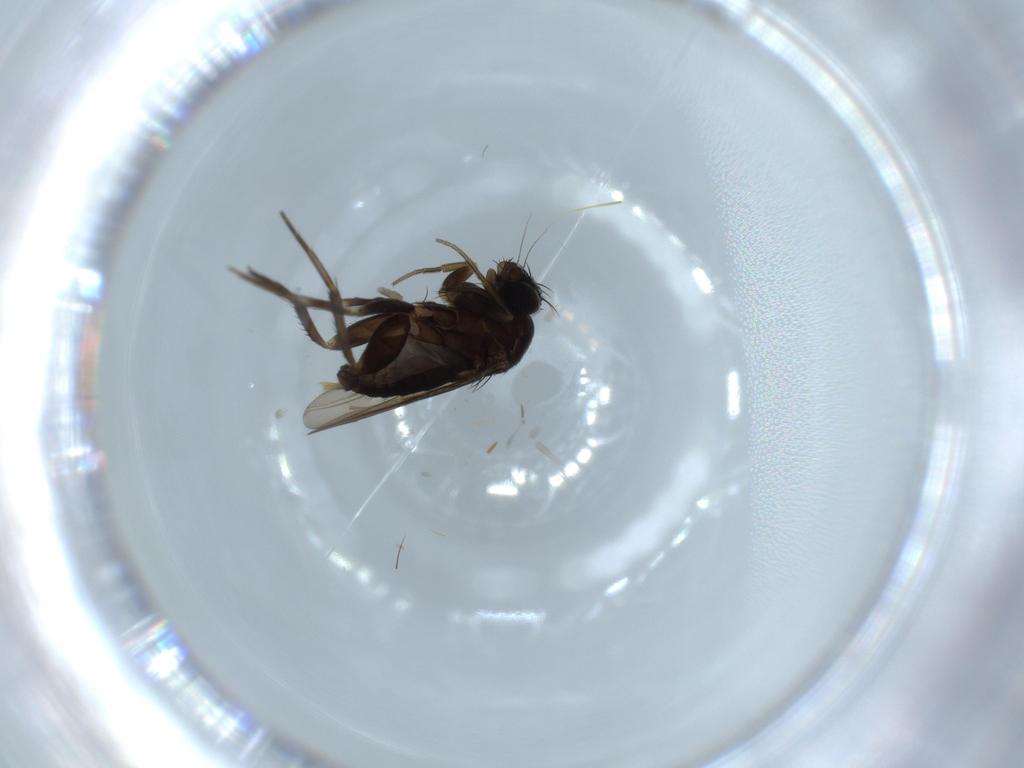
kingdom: Animalia
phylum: Arthropoda
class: Insecta
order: Diptera
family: Phoridae
